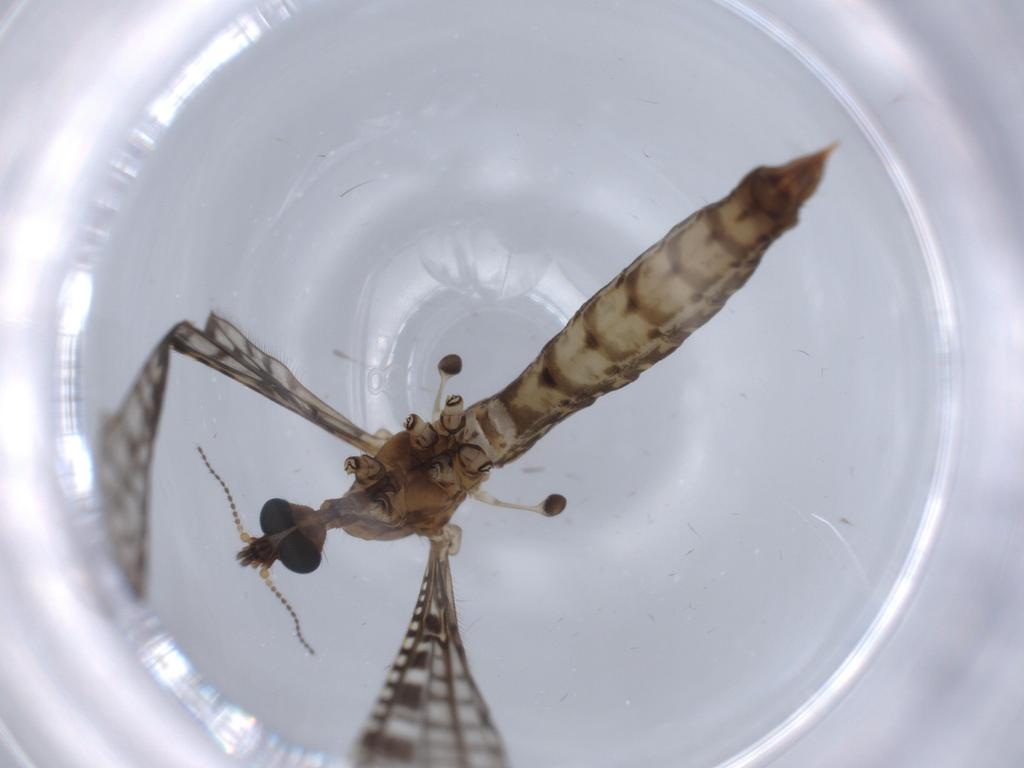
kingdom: Animalia
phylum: Arthropoda
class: Insecta
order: Diptera
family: Limoniidae
